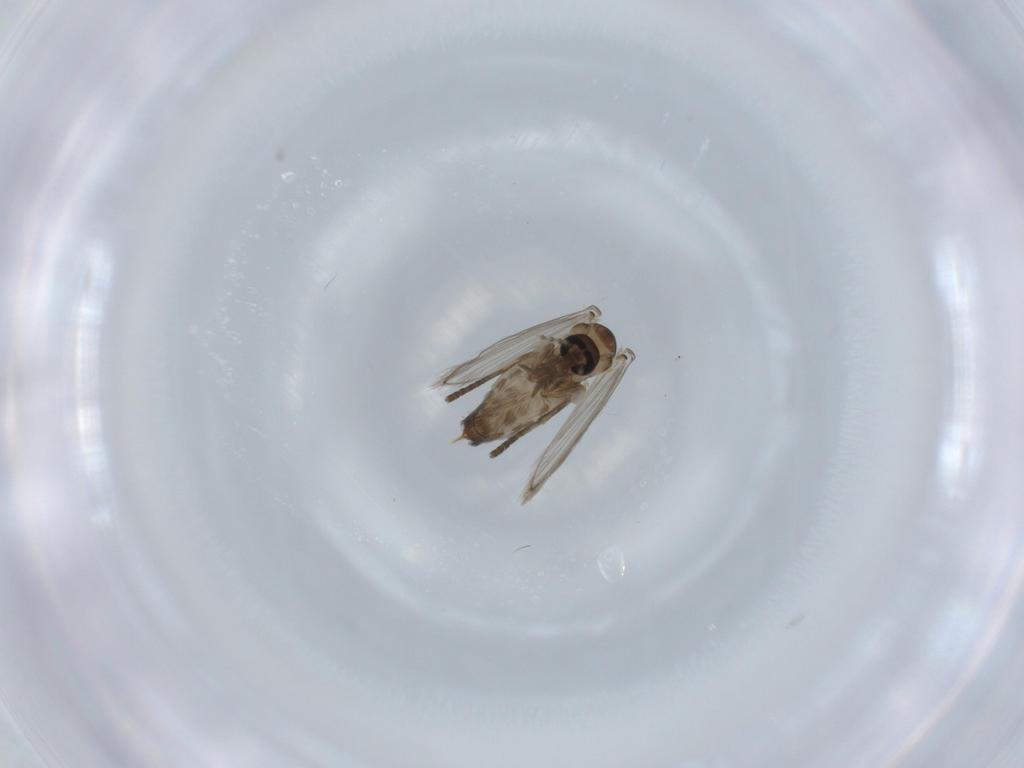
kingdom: Animalia
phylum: Arthropoda
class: Insecta
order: Diptera
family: Psychodidae
